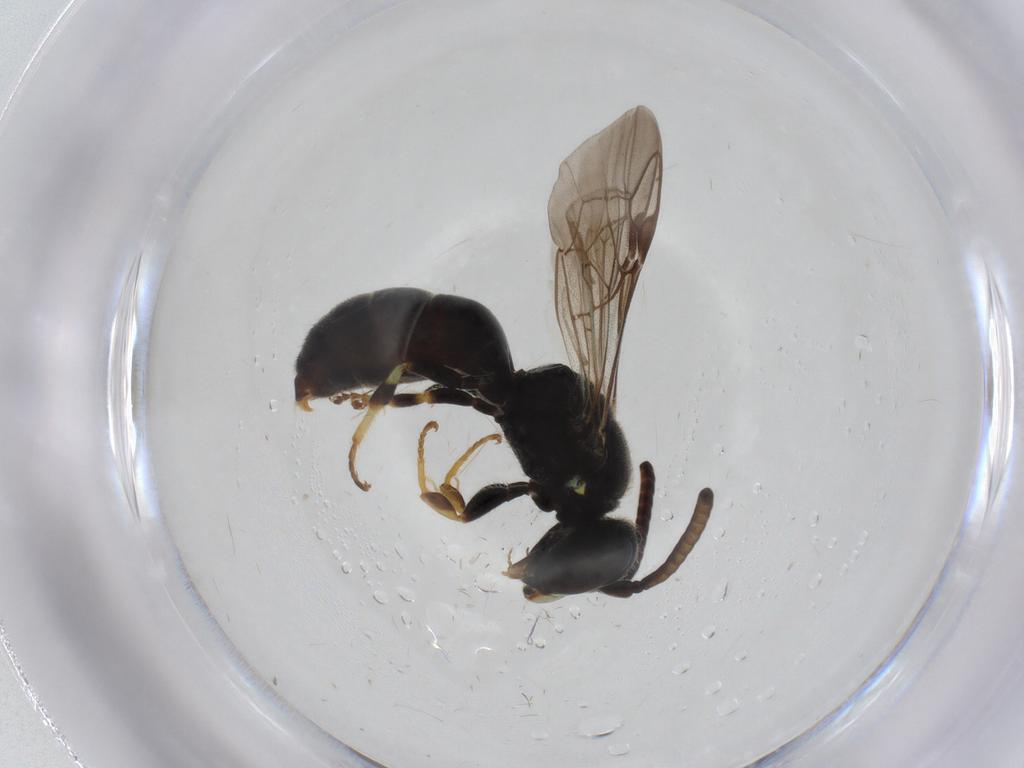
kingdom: Animalia
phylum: Arthropoda
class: Insecta
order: Hymenoptera
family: Colletidae
